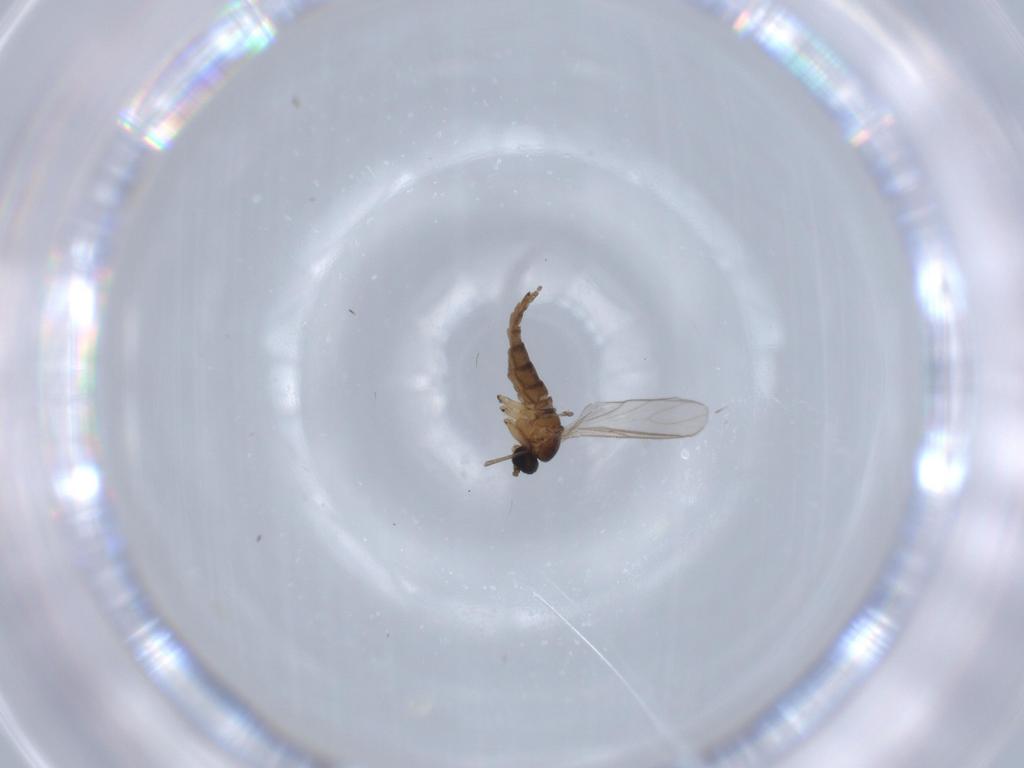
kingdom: Animalia
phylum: Arthropoda
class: Insecta
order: Diptera
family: Sciaridae
